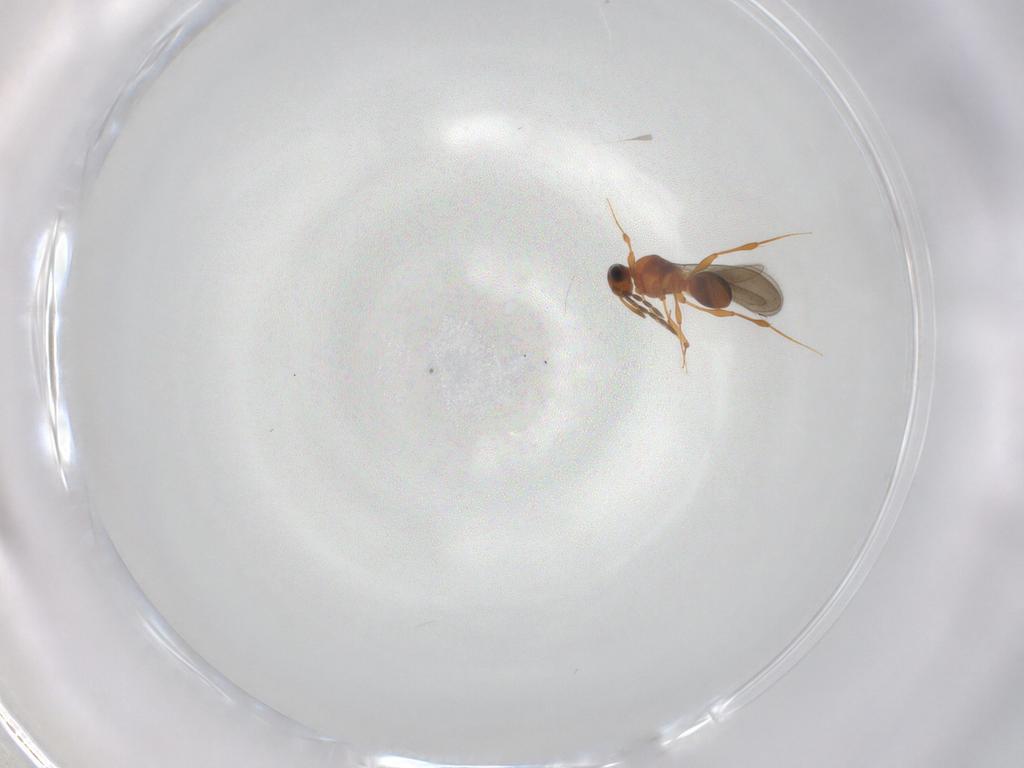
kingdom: Animalia
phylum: Arthropoda
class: Insecta
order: Hymenoptera
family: Platygastridae
